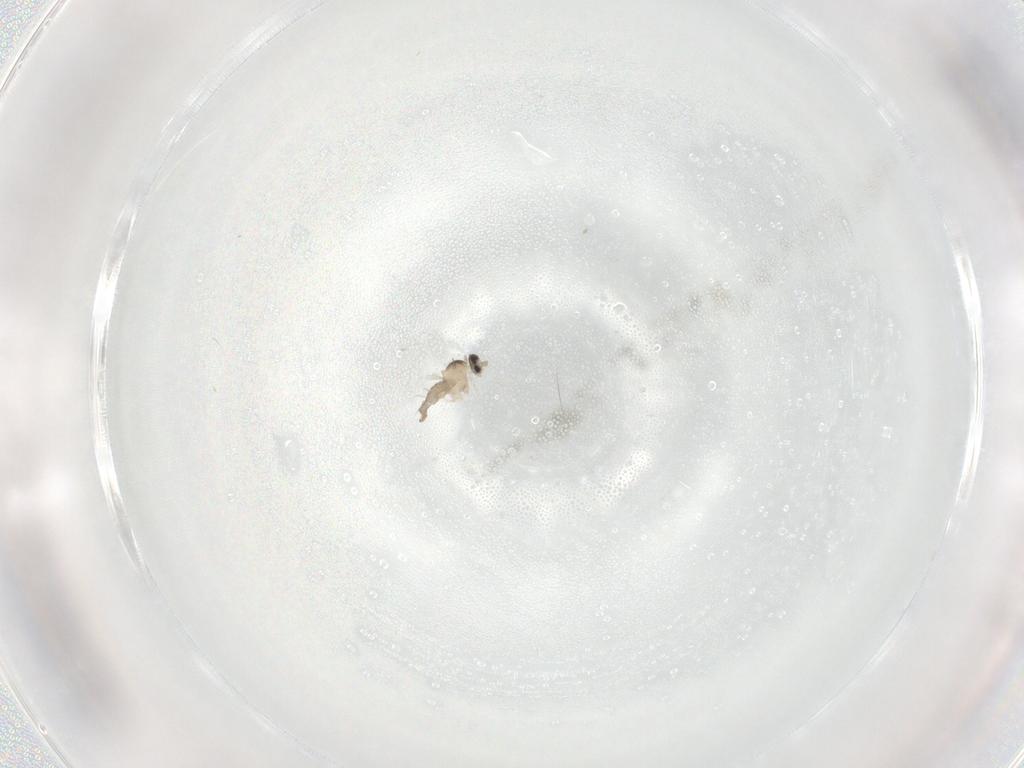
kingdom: Animalia
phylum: Arthropoda
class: Insecta
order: Diptera
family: Cecidomyiidae
